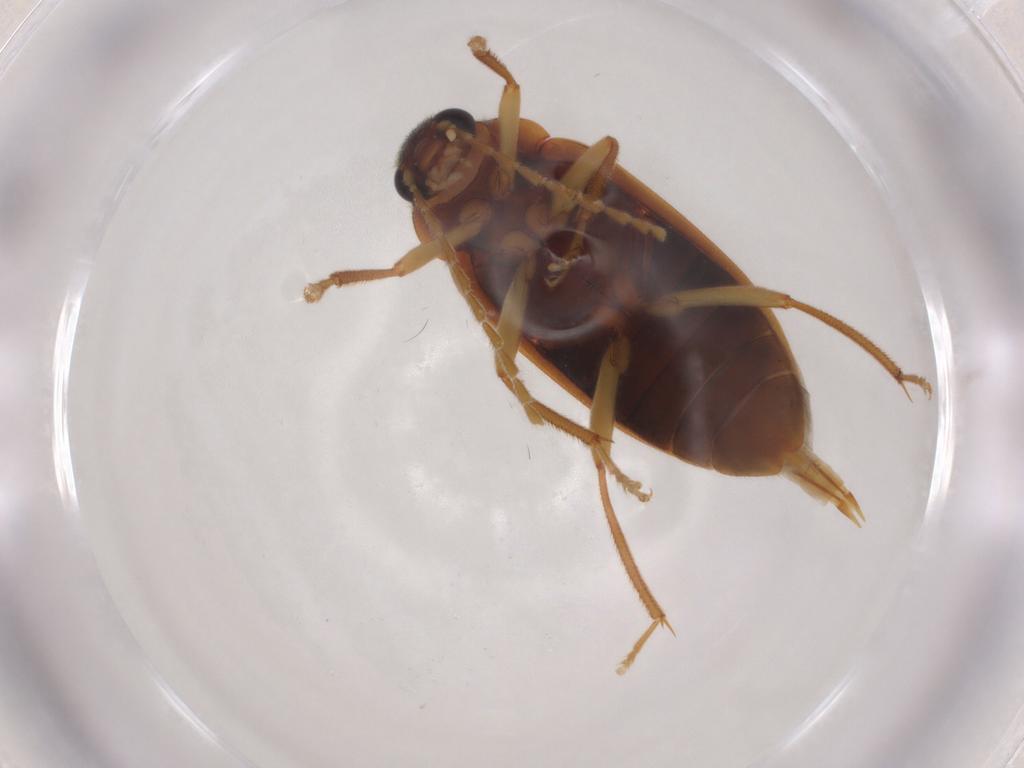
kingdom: Animalia
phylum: Arthropoda
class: Insecta
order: Coleoptera
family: Ptilodactylidae
